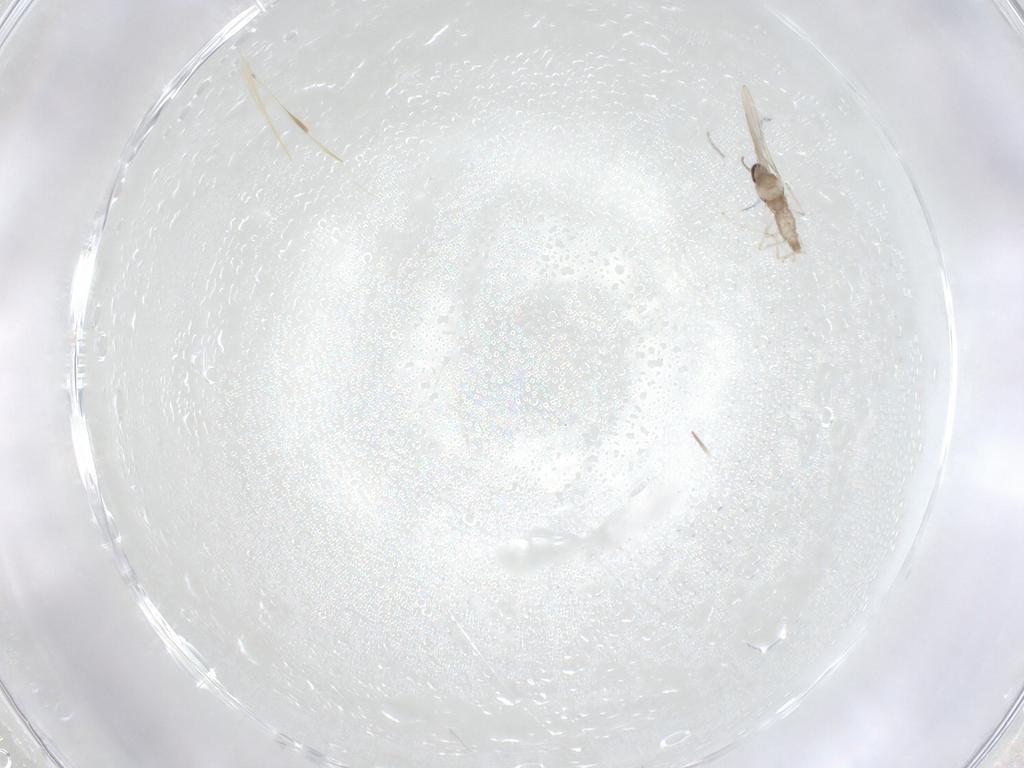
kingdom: Animalia
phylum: Arthropoda
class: Insecta
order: Diptera
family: Cecidomyiidae
